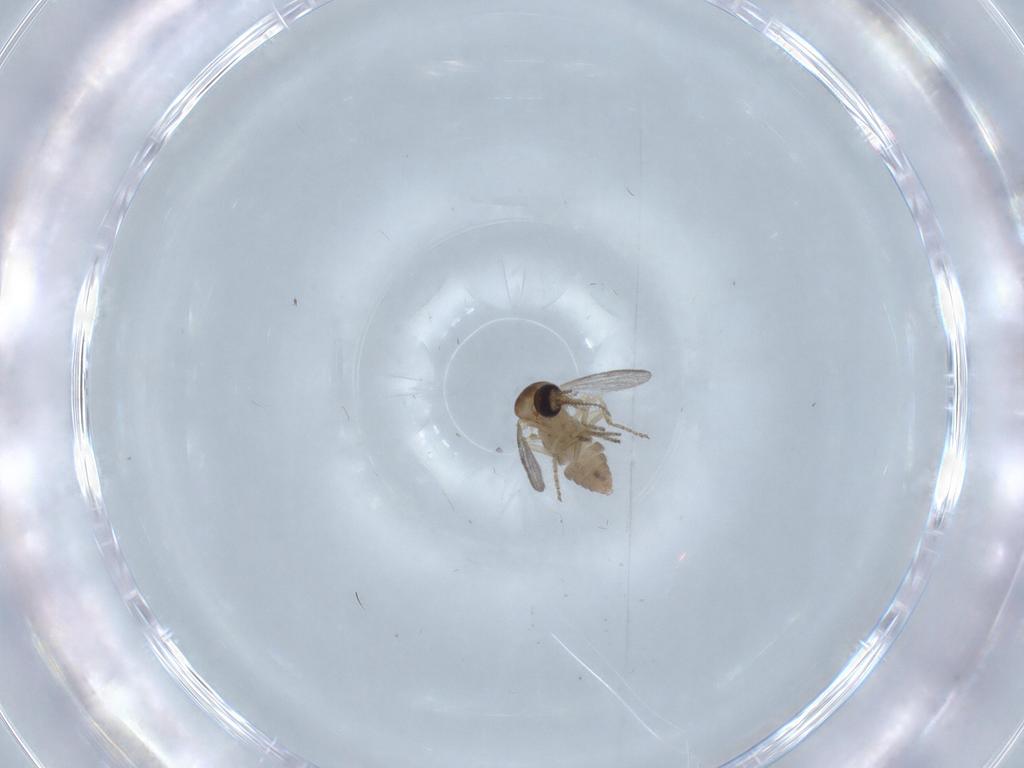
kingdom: Animalia
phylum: Arthropoda
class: Insecta
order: Diptera
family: Ceratopogonidae
